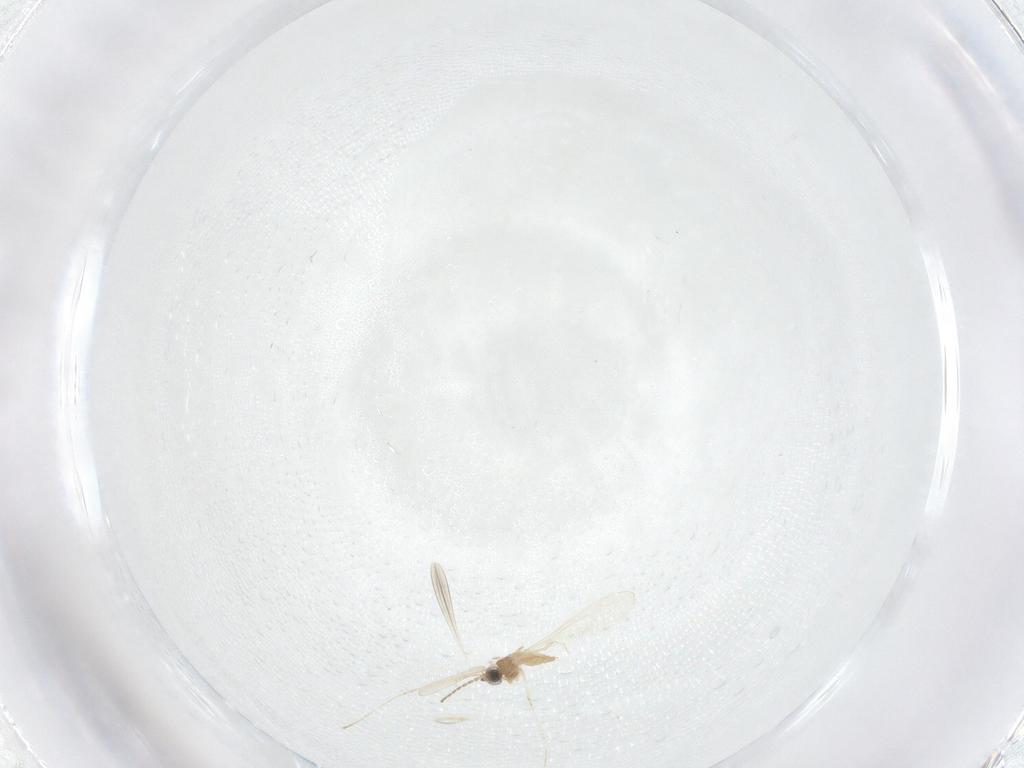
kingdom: Animalia
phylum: Arthropoda
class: Insecta
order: Diptera
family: Cecidomyiidae
